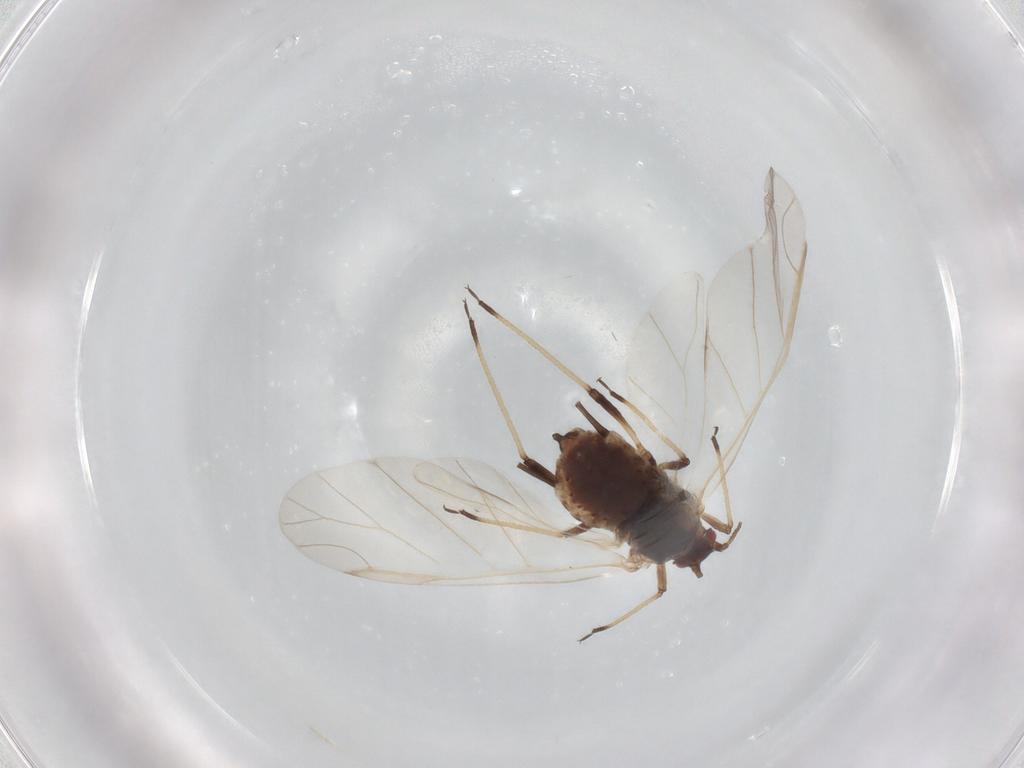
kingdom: Animalia
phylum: Arthropoda
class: Insecta
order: Hemiptera
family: Aphididae
